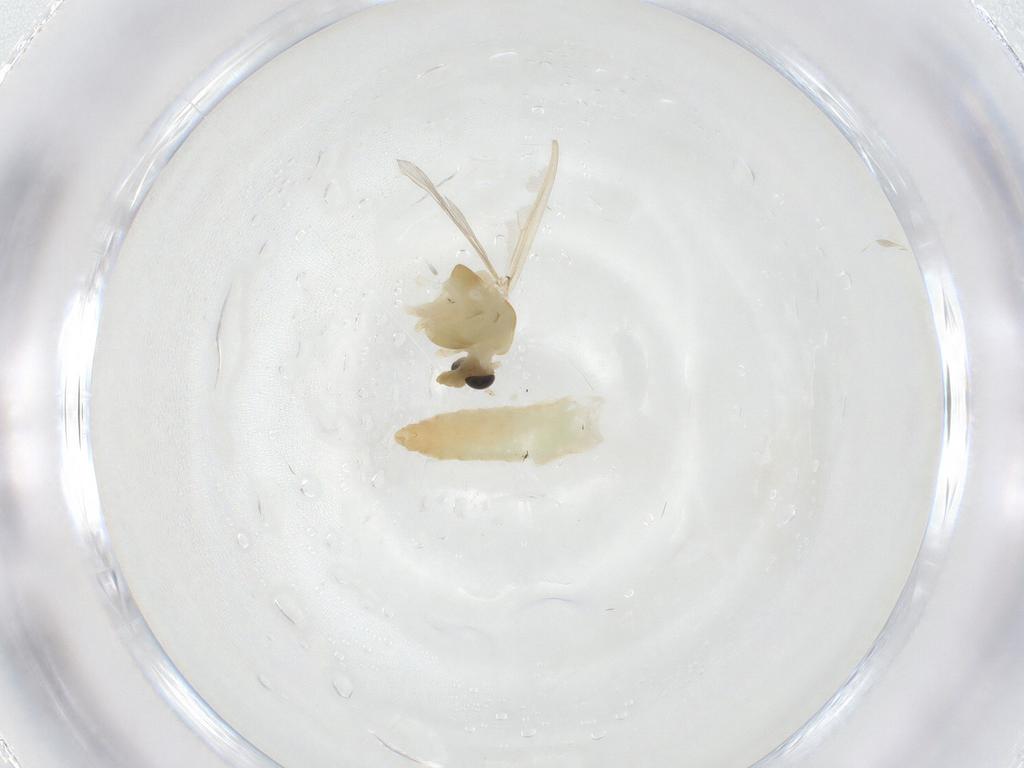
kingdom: Animalia
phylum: Arthropoda
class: Insecta
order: Diptera
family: Chironomidae
